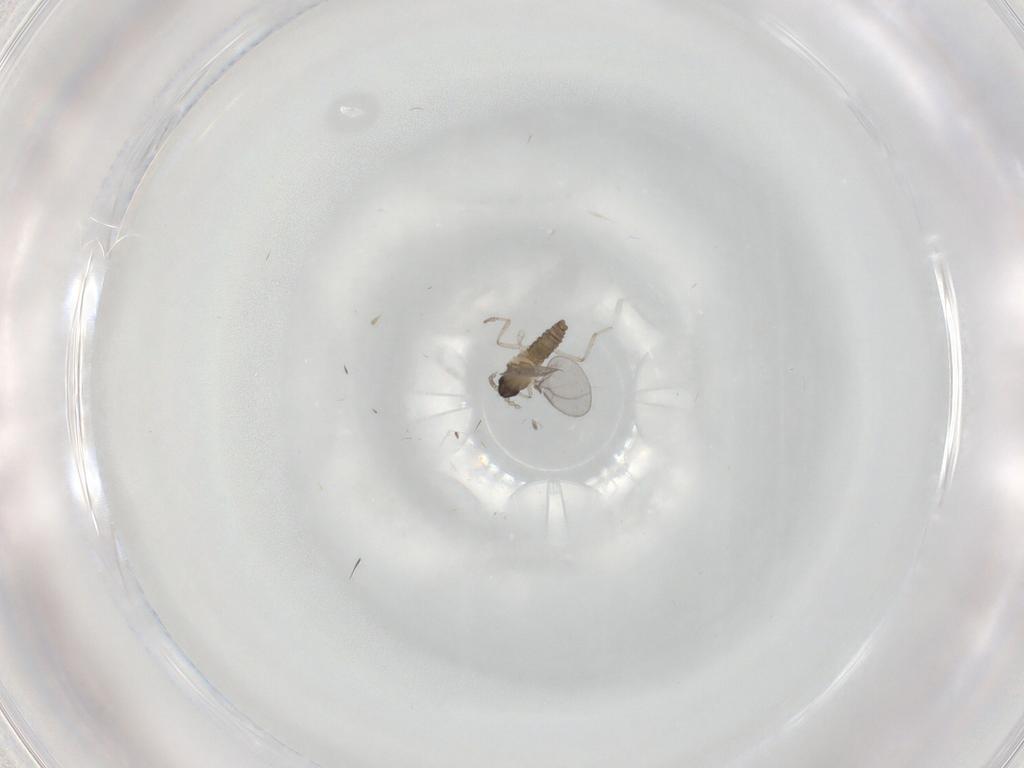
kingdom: Animalia
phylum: Arthropoda
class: Insecta
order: Diptera
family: Cecidomyiidae
